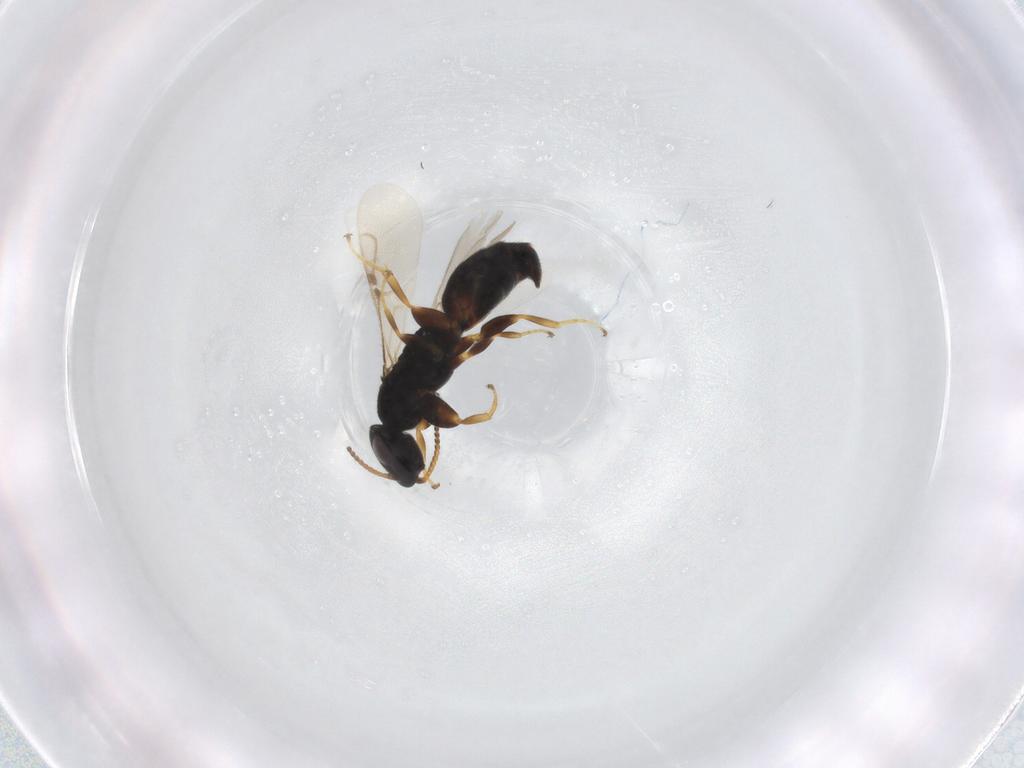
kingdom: Animalia
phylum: Arthropoda
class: Insecta
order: Hymenoptera
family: Bethylidae
